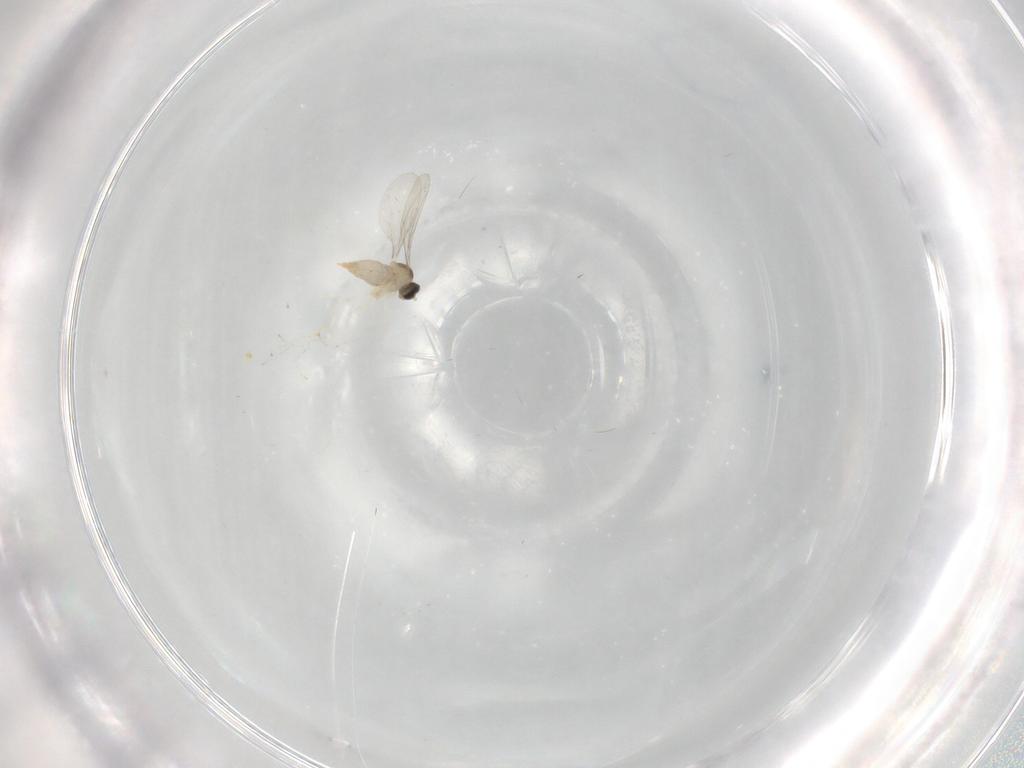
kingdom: Animalia
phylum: Arthropoda
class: Insecta
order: Diptera
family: Cecidomyiidae
